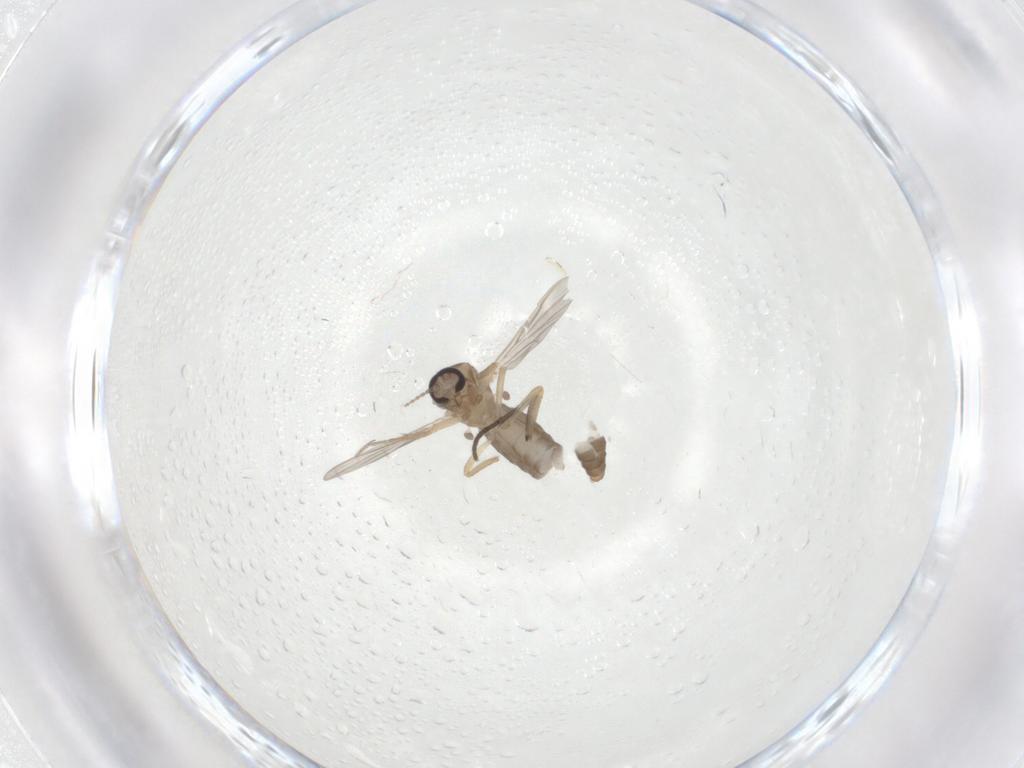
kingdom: Animalia
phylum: Arthropoda
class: Insecta
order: Diptera
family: Ceratopogonidae
